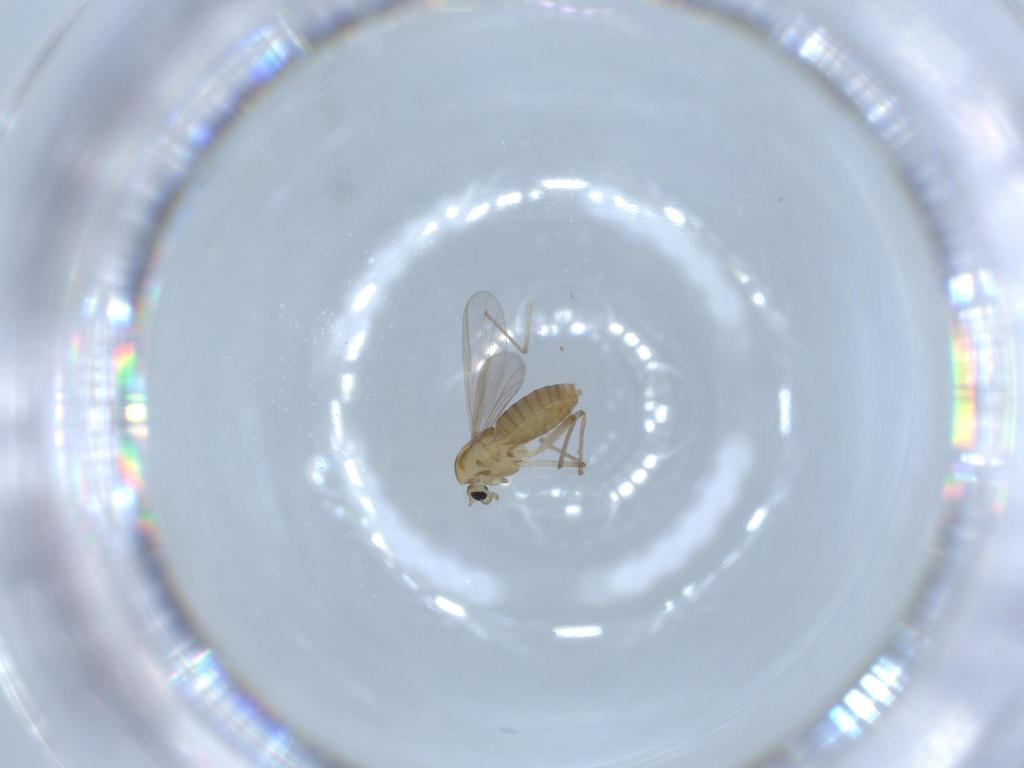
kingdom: Animalia
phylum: Arthropoda
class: Insecta
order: Diptera
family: Chironomidae
